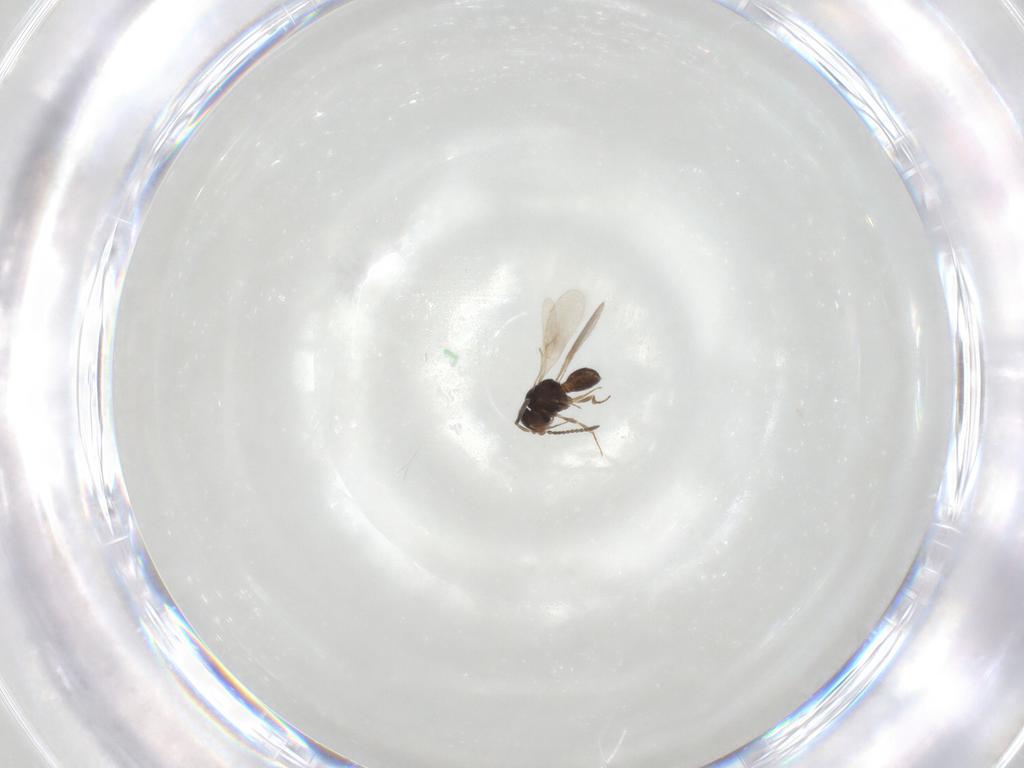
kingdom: Animalia
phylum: Arthropoda
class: Insecta
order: Hymenoptera
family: Scelionidae
